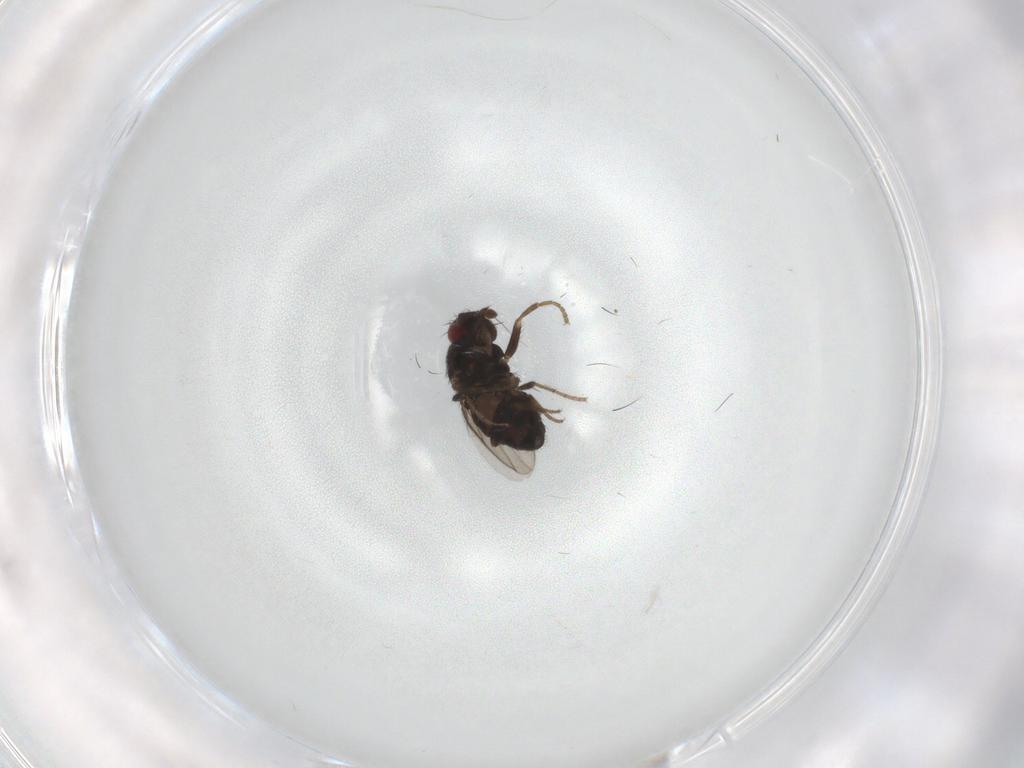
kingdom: Animalia
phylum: Arthropoda
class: Insecta
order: Diptera
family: Sphaeroceridae
